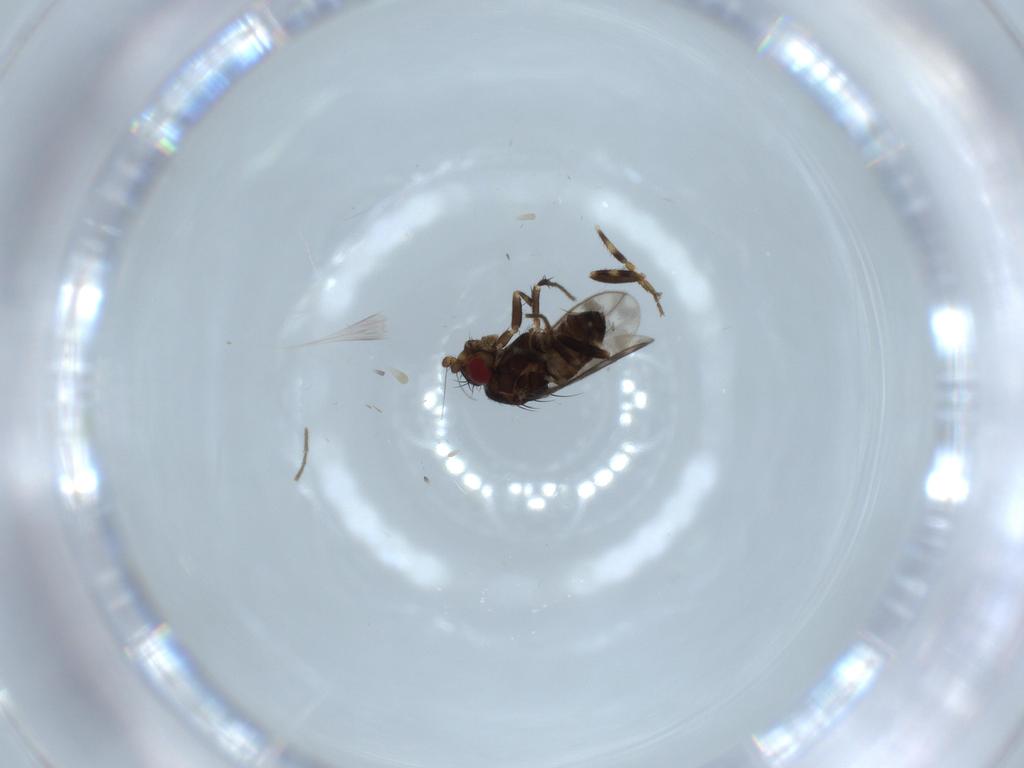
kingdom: Animalia
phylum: Arthropoda
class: Insecta
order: Diptera
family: Sphaeroceridae
